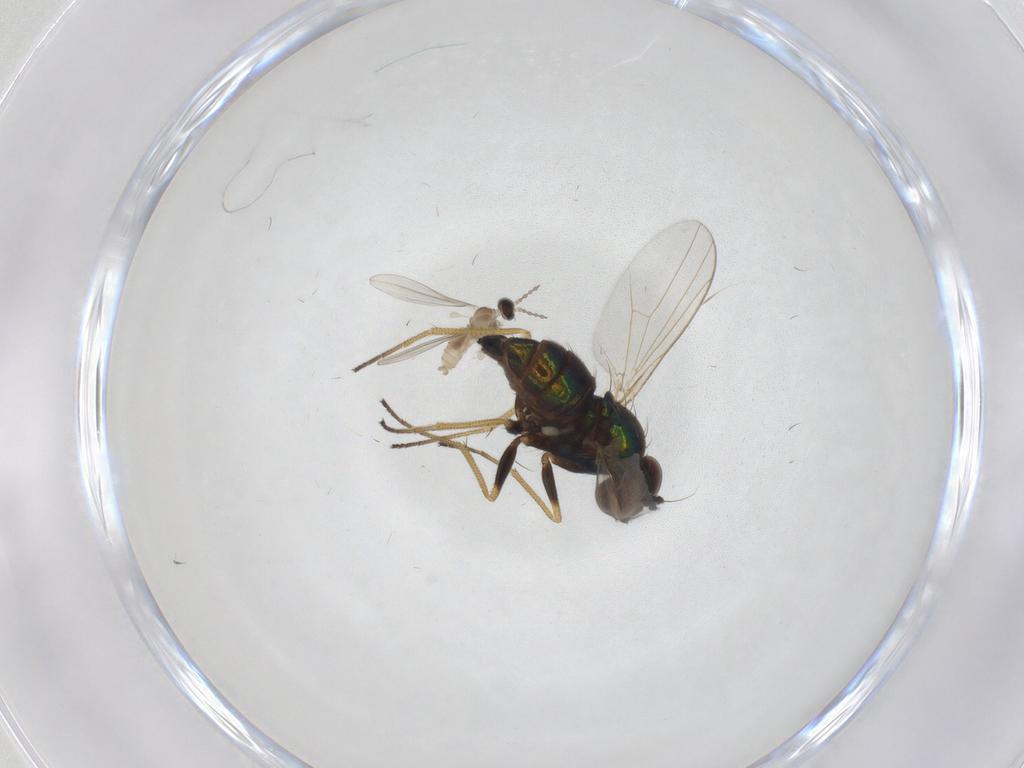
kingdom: Animalia
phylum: Arthropoda
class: Insecta
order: Diptera
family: Dolichopodidae
